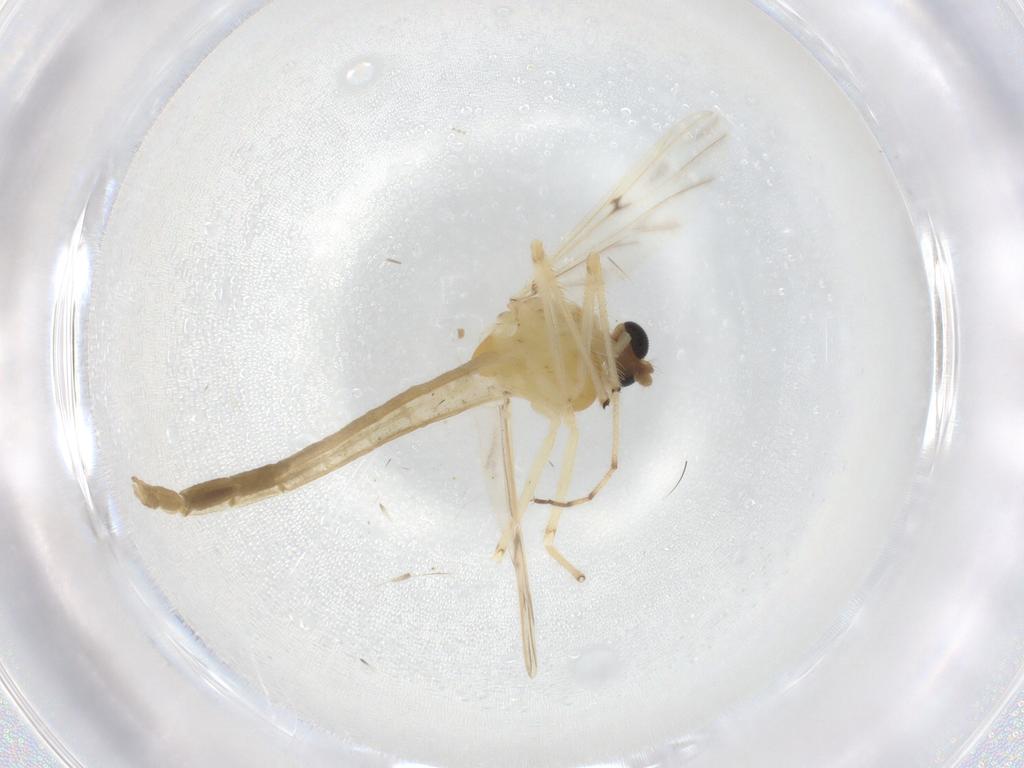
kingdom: Animalia
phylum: Arthropoda
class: Insecta
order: Diptera
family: Chironomidae
